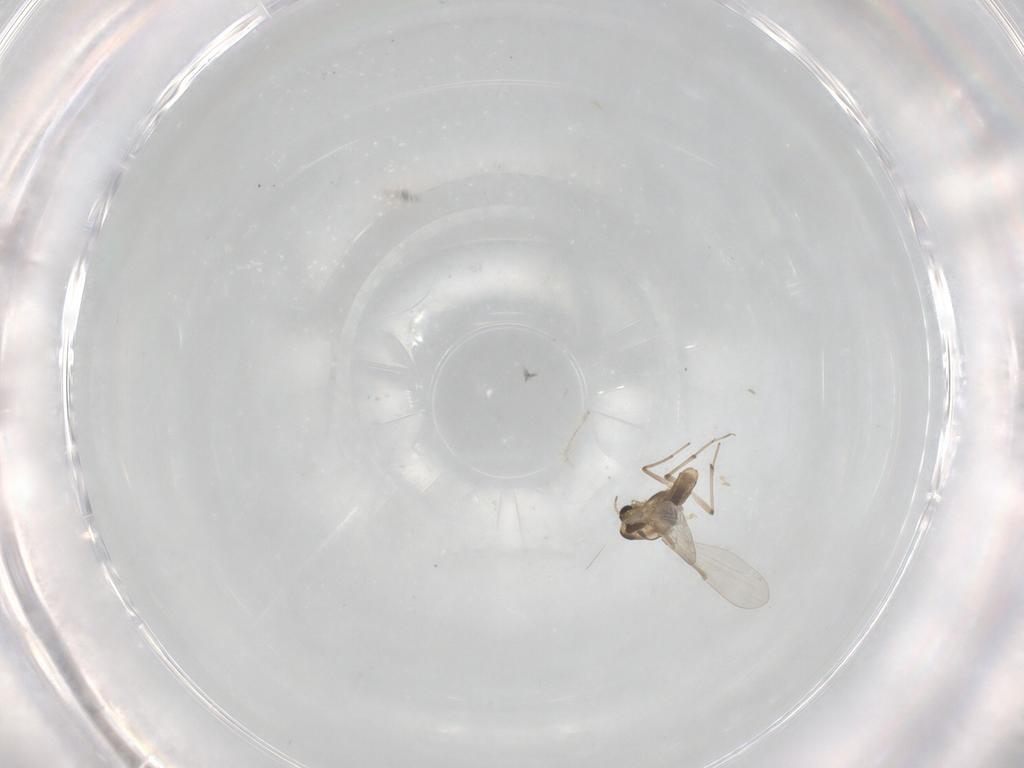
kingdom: Animalia
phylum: Arthropoda
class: Insecta
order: Diptera
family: Chironomidae
